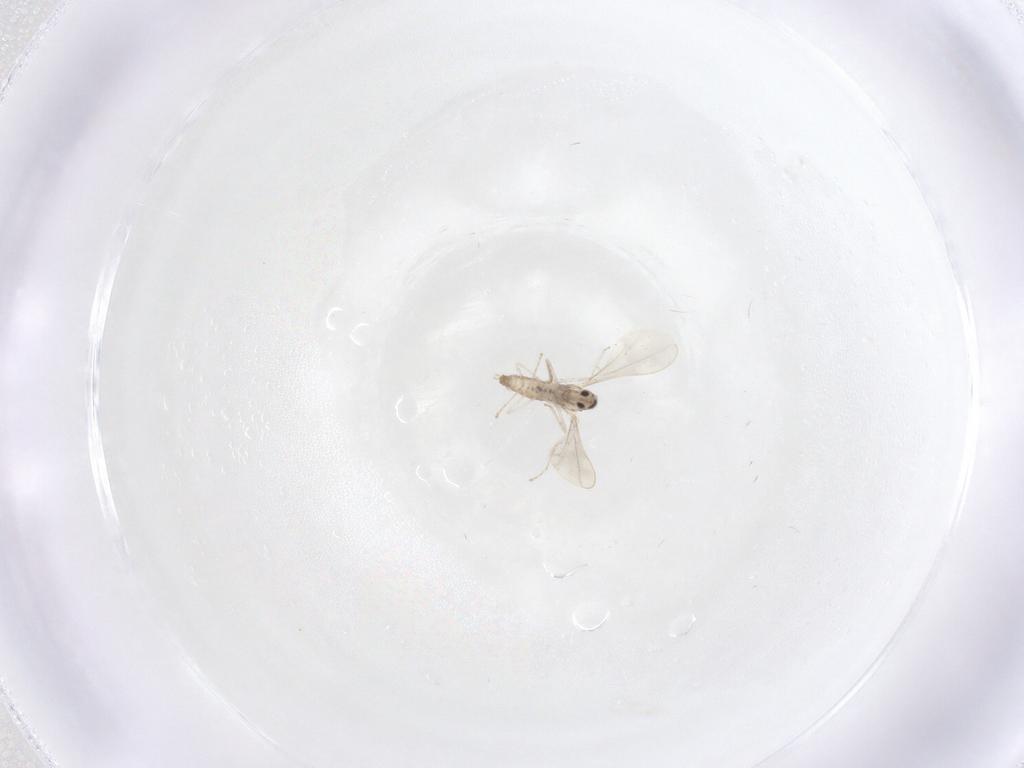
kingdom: Animalia
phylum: Arthropoda
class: Insecta
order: Diptera
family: Cecidomyiidae
